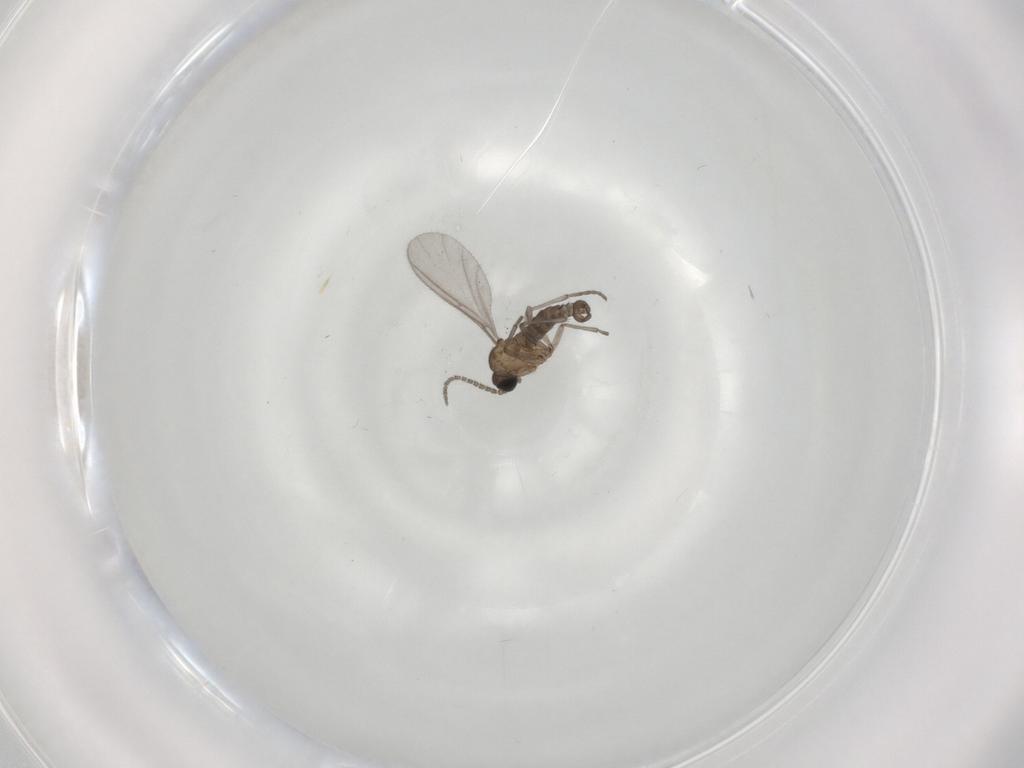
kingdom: Animalia
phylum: Arthropoda
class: Insecta
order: Diptera
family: Sciaridae
